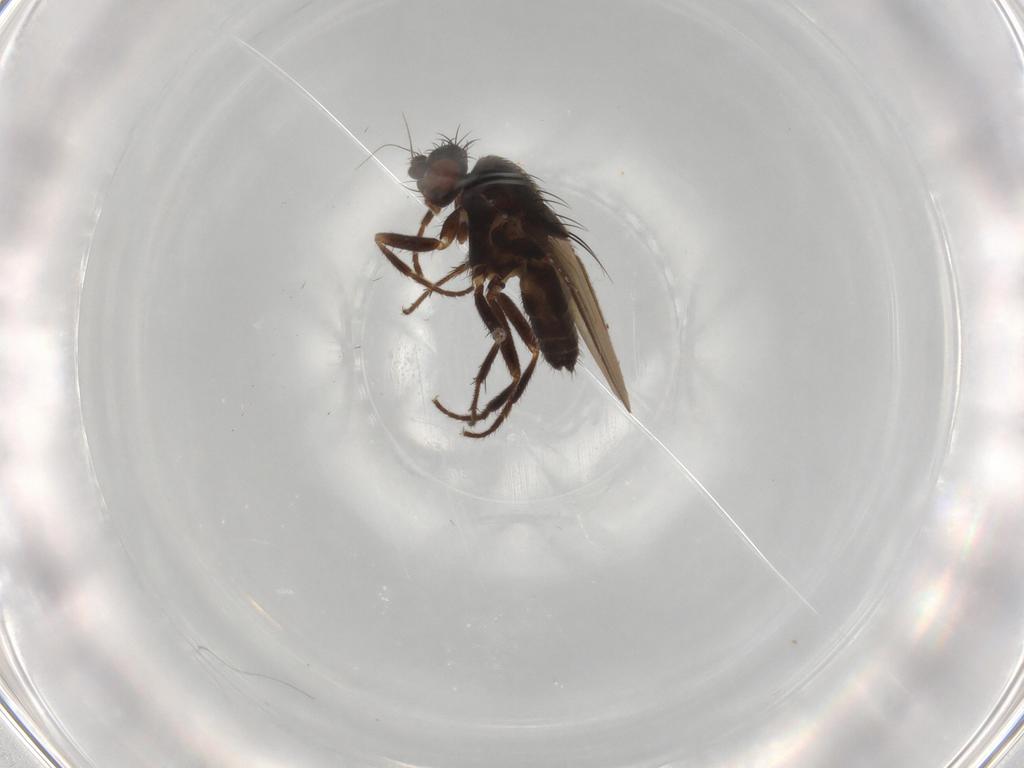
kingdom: Animalia
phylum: Arthropoda
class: Insecta
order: Diptera
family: Sphaeroceridae
